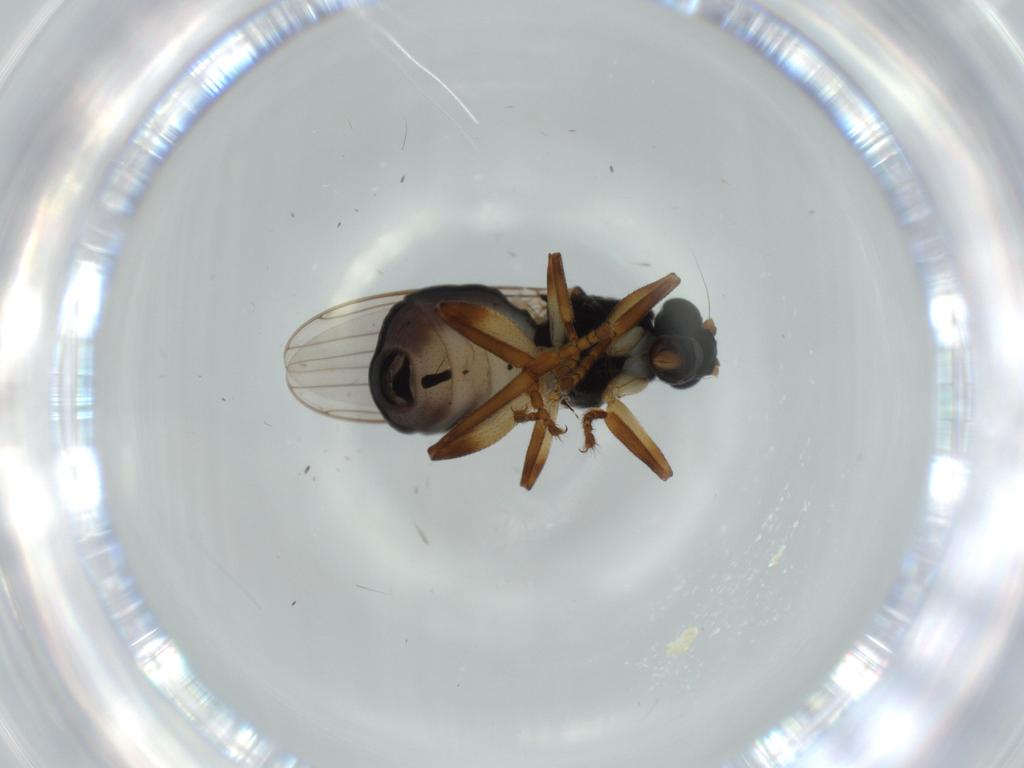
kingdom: Animalia
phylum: Arthropoda
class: Insecta
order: Diptera
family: Sphaeroceridae
